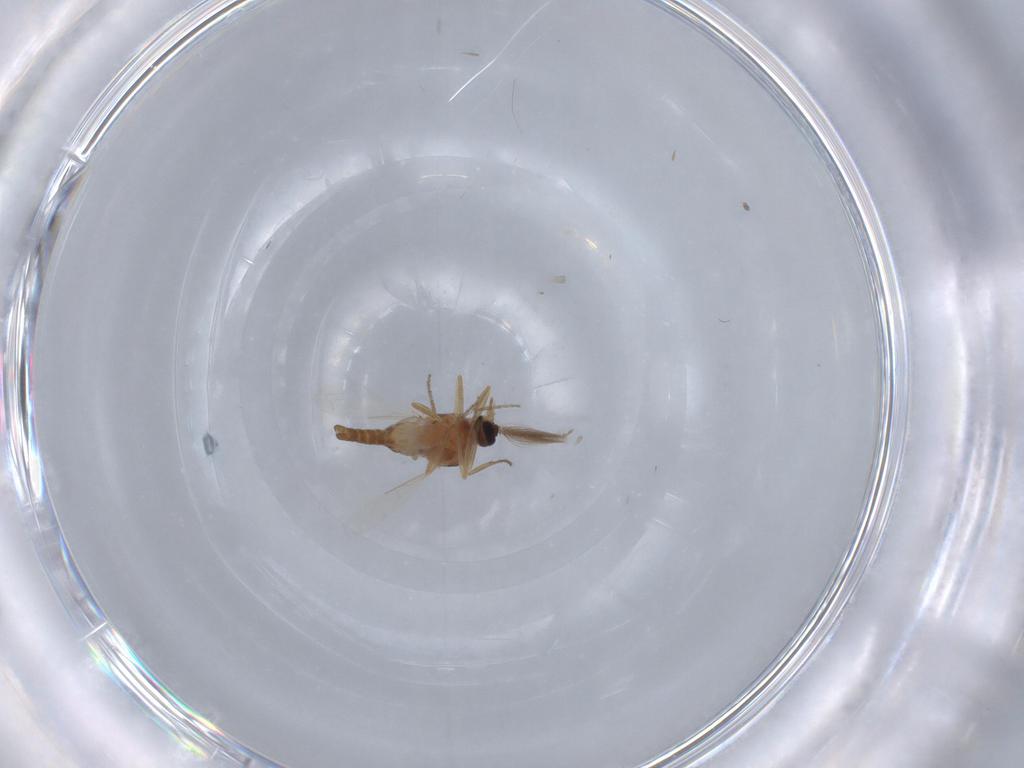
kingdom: Animalia
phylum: Arthropoda
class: Insecta
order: Diptera
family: Ceratopogonidae
